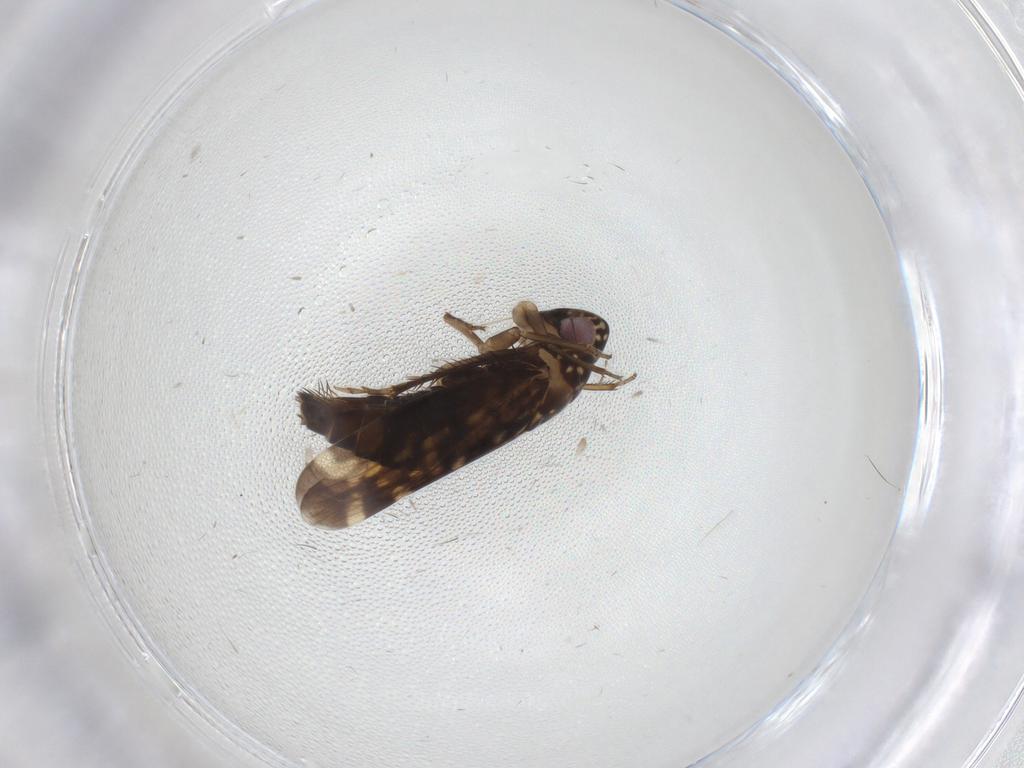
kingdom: Animalia
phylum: Arthropoda
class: Insecta
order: Hemiptera
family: Cicadellidae
